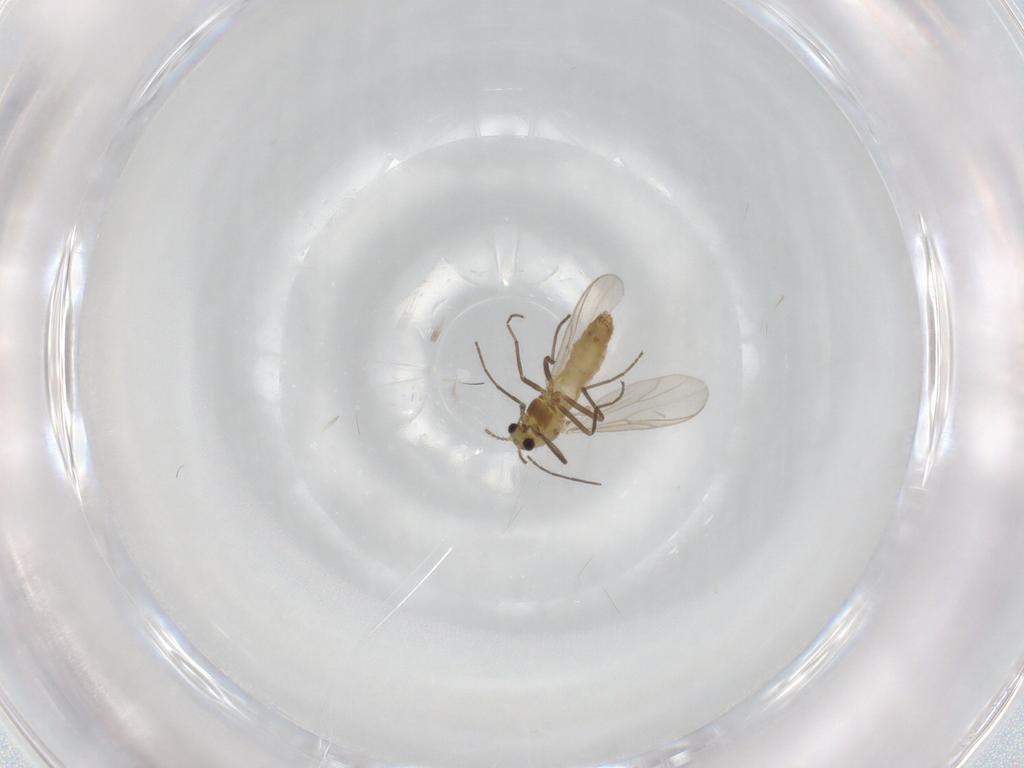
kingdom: Animalia
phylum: Arthropoda
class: Insecta
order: Diptera
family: Chironomidae
